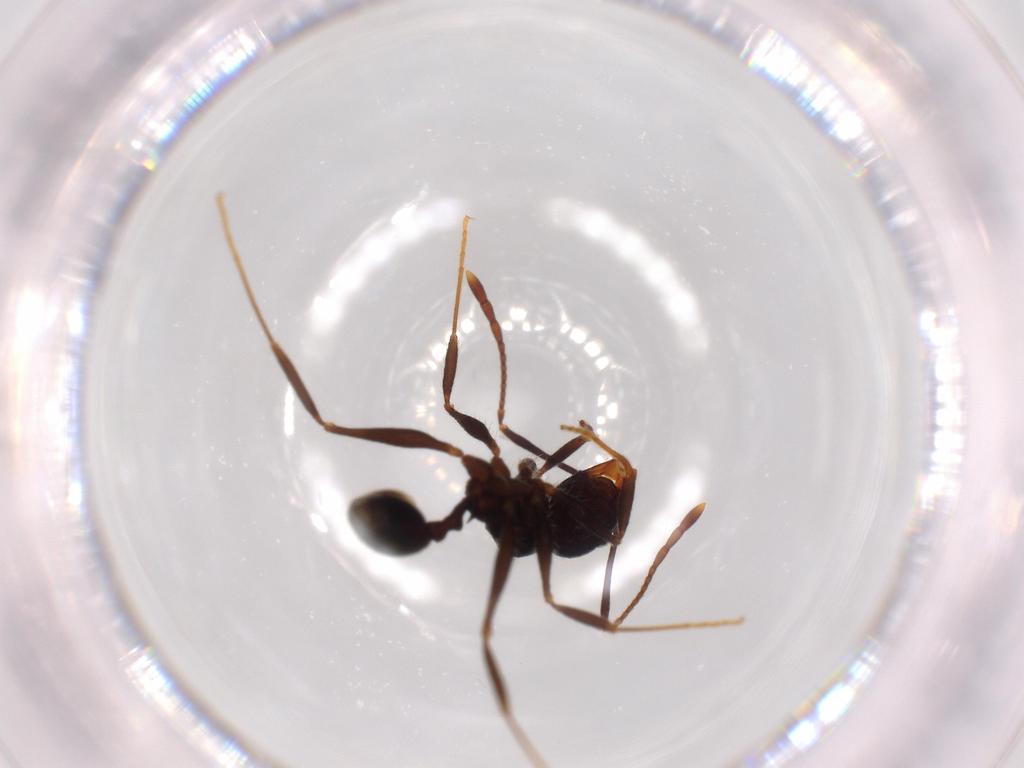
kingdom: Animalia
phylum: Arthropoda
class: Insecta
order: Hymenoptera
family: Formicidae
